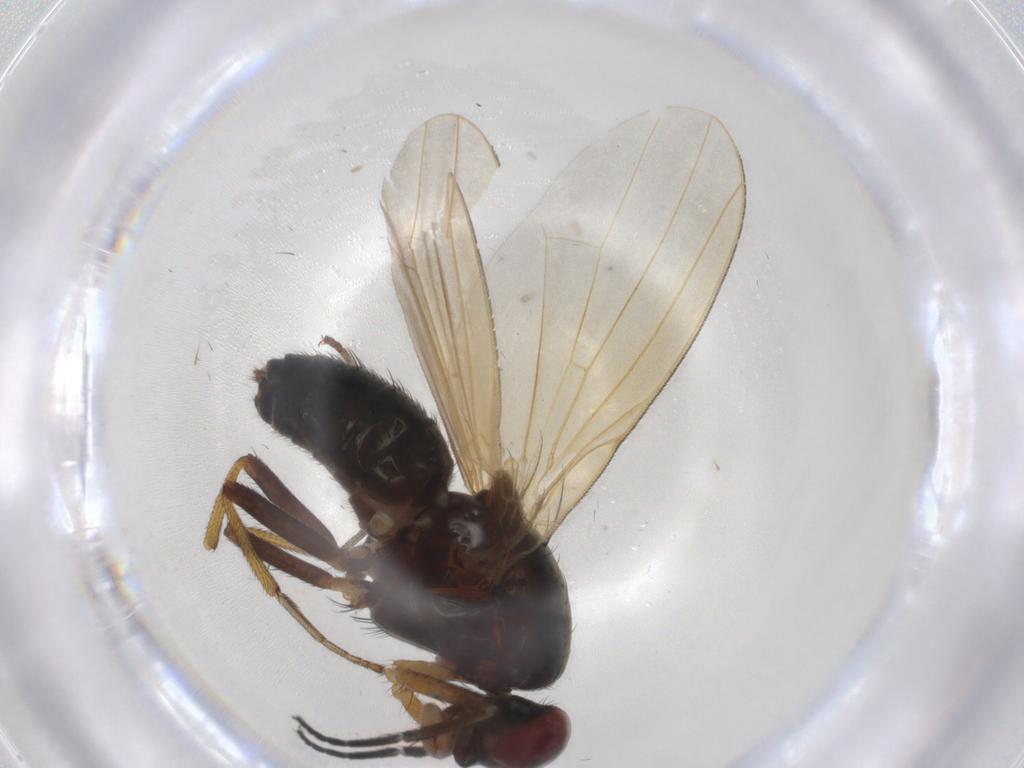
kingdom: Animalia
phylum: Arthropoda
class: Insecta
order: Diptera
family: Sciaridae
